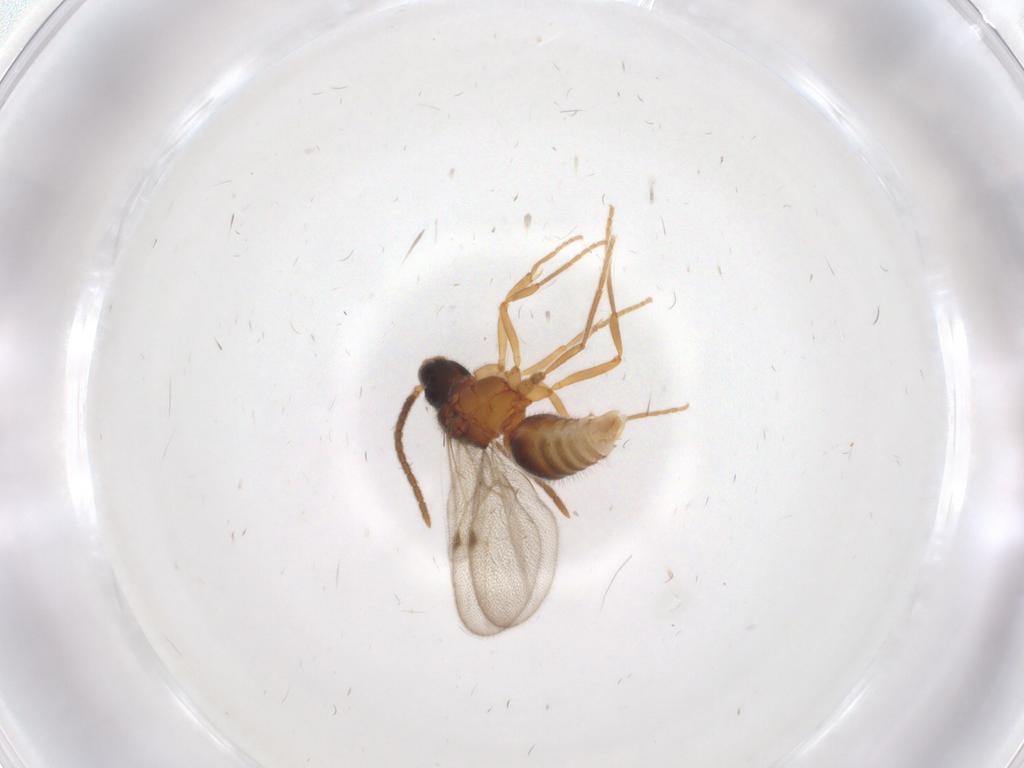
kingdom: Animalia
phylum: Arthropoda
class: Insecta
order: Hymenoptera
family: Formicidae
